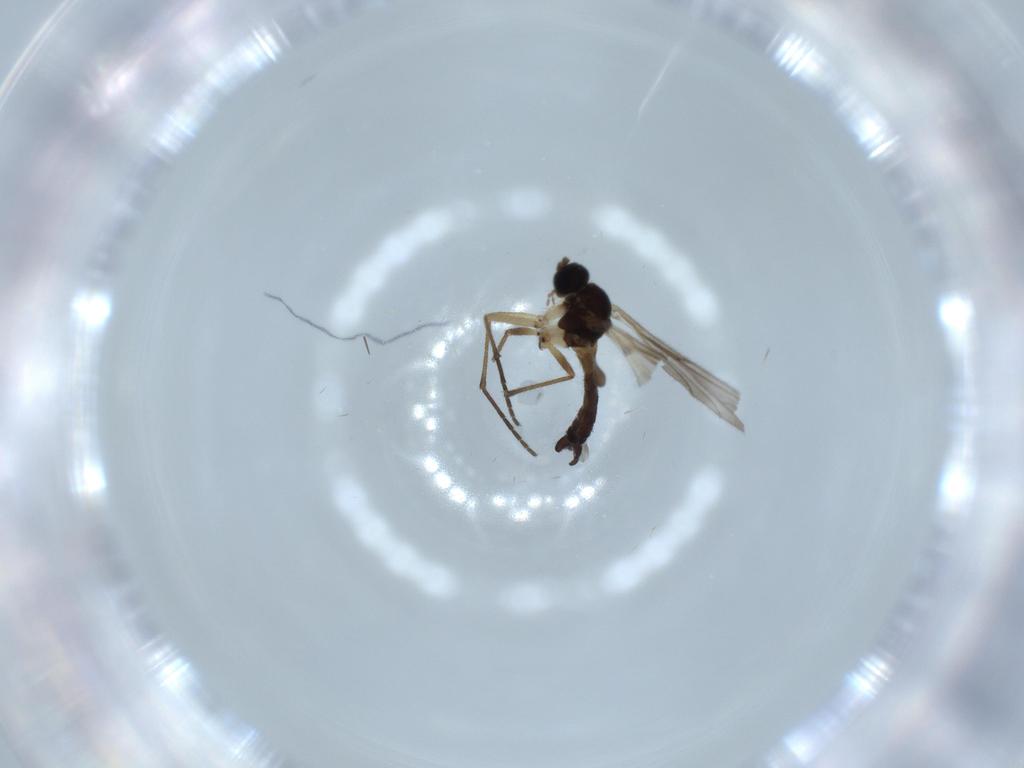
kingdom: Animalia
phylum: Arthropoda
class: Insecta
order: Diptera
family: Sciaridae
